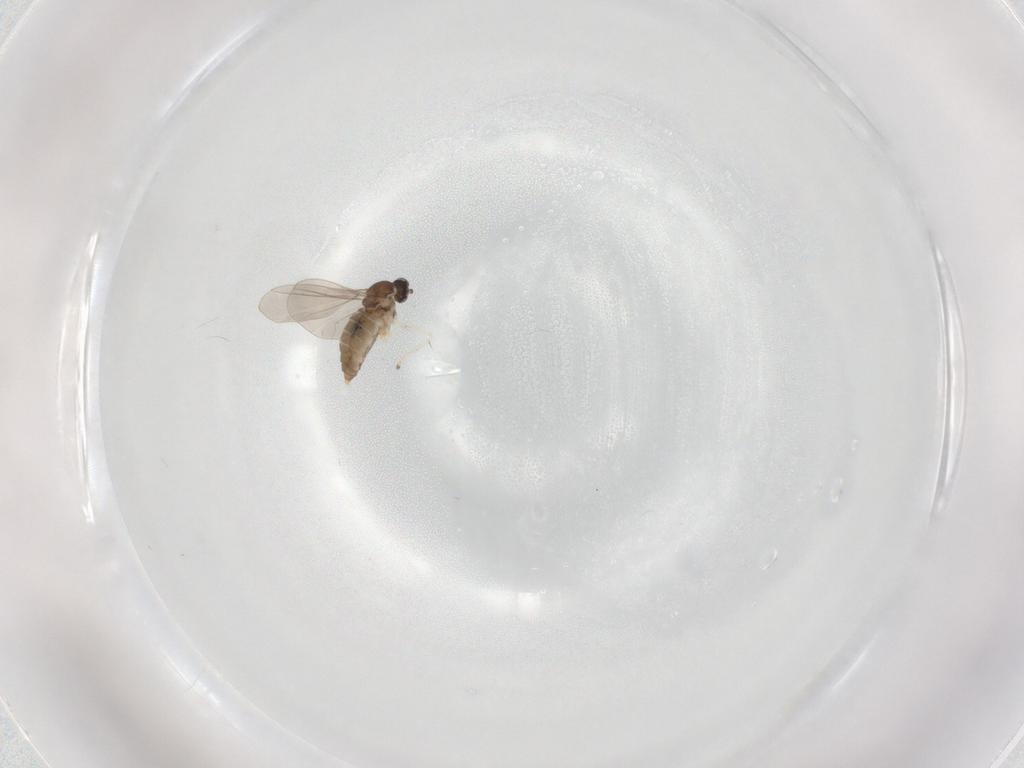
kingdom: Animalia
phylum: Arthropoda
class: Insecta
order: Diptera
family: Cecidomyiidae
